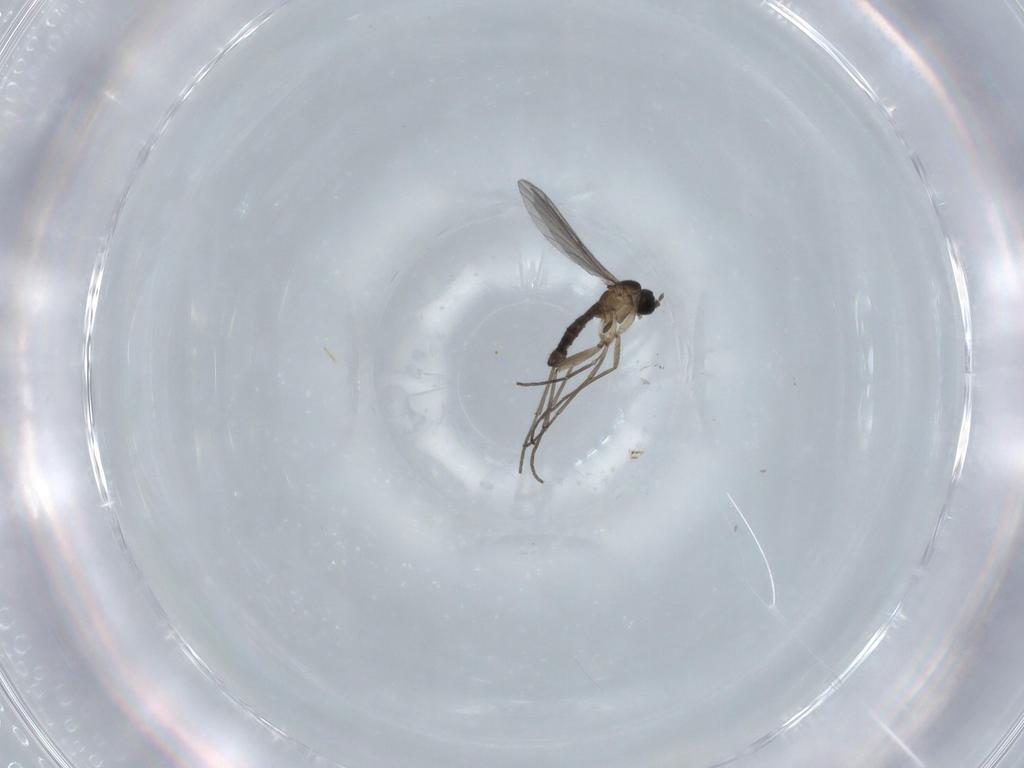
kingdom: Animalia
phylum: Arthropoda
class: Insecta
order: Diptera
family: Sciaridae
